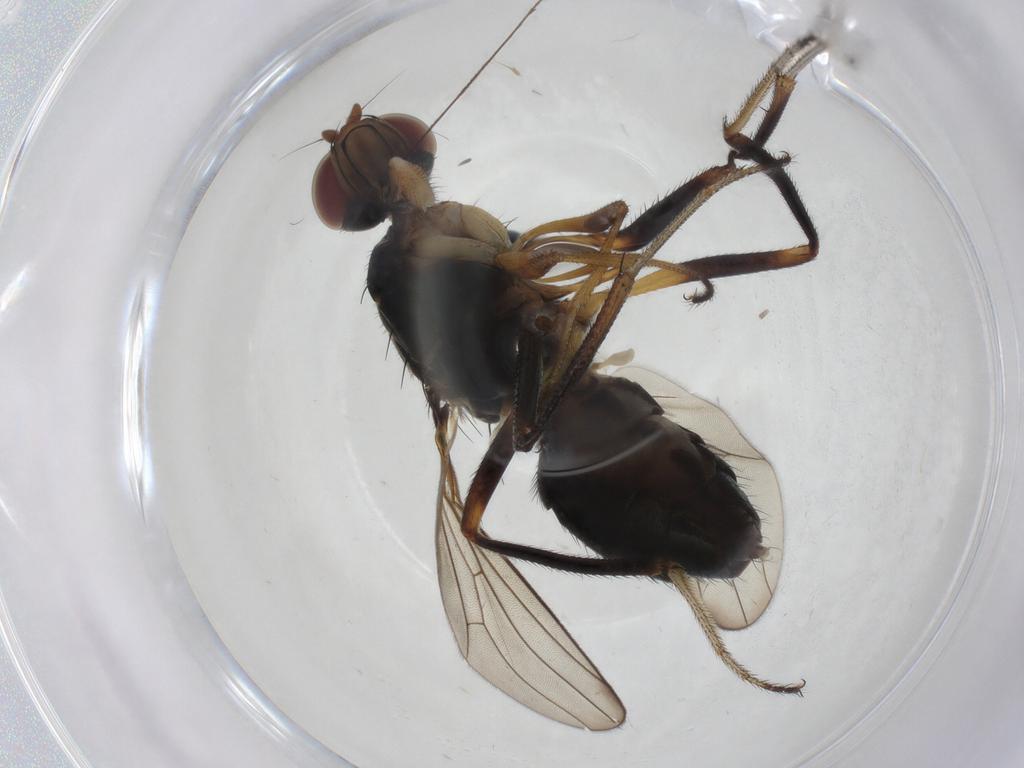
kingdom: Animalia
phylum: Arthropoda
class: Insecta
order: Diptera
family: Sepsidae
